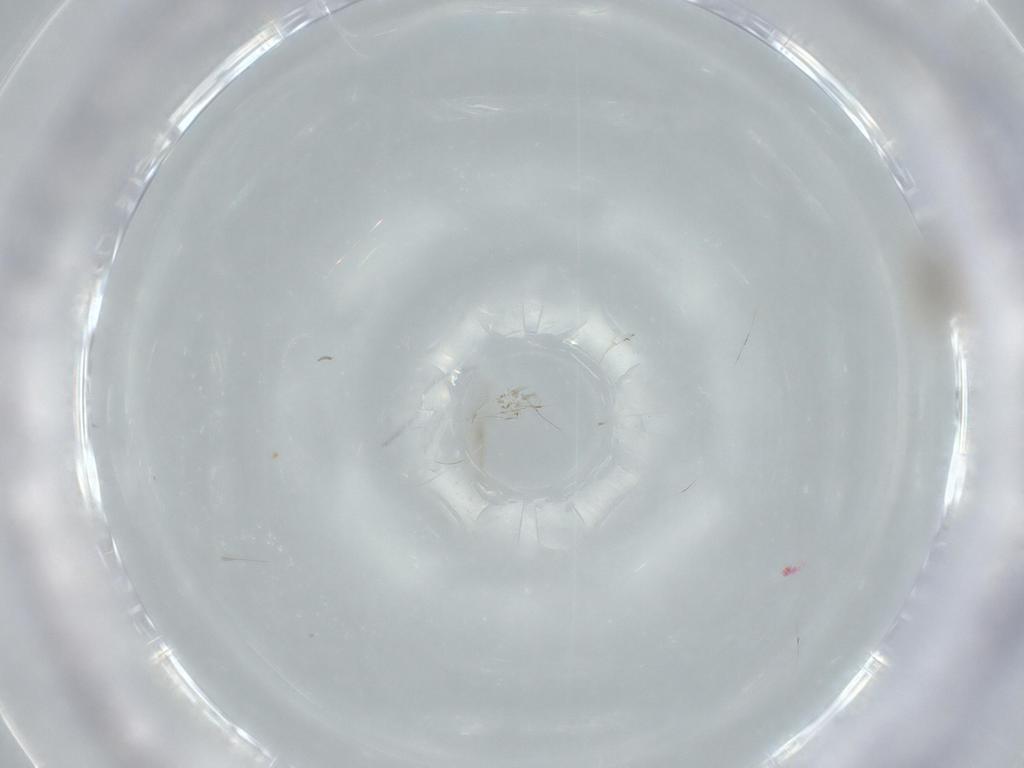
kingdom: Animalia
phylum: Arthropoda
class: Insecta
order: Diptera
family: Phoridae
